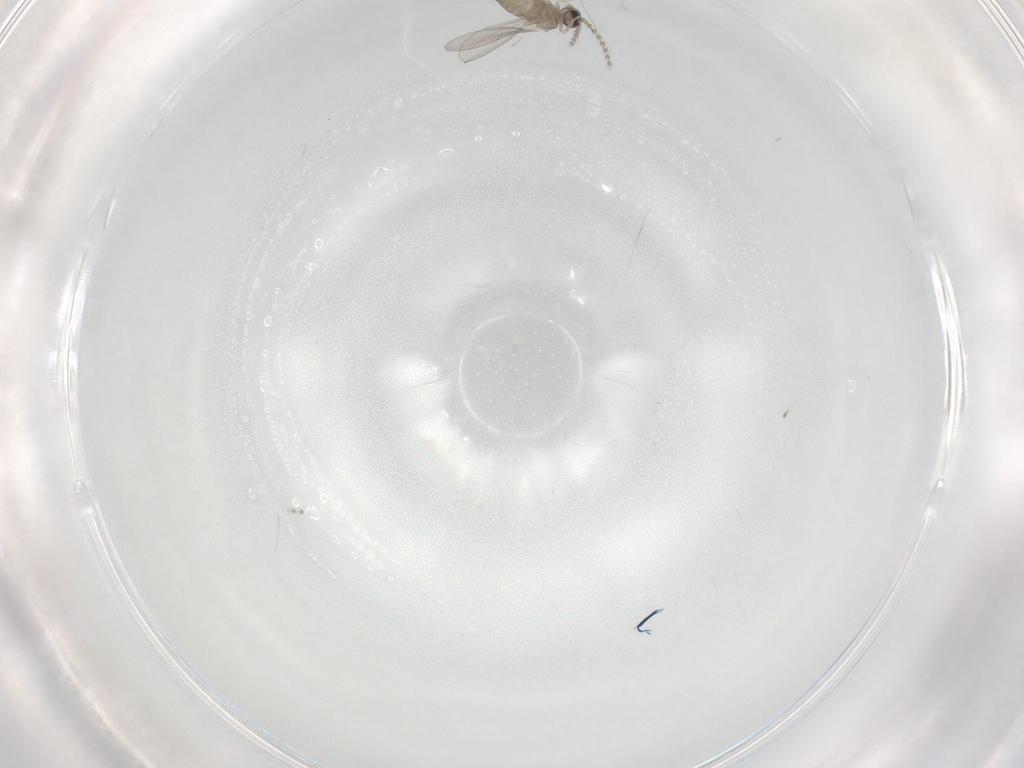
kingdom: Animalia
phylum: Arthropoda
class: Insecta
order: Diptera
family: Cecidomyiidae
